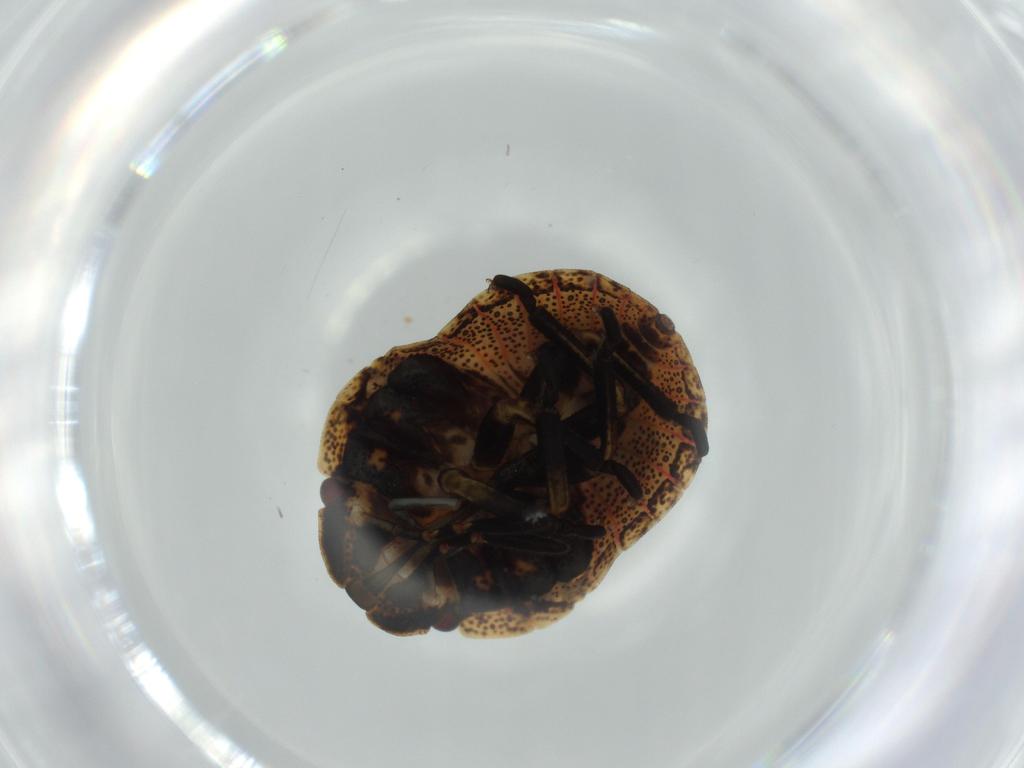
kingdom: Animalia
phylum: Arthropoda
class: Insecta
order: Hemiptera
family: Scutelleridae
